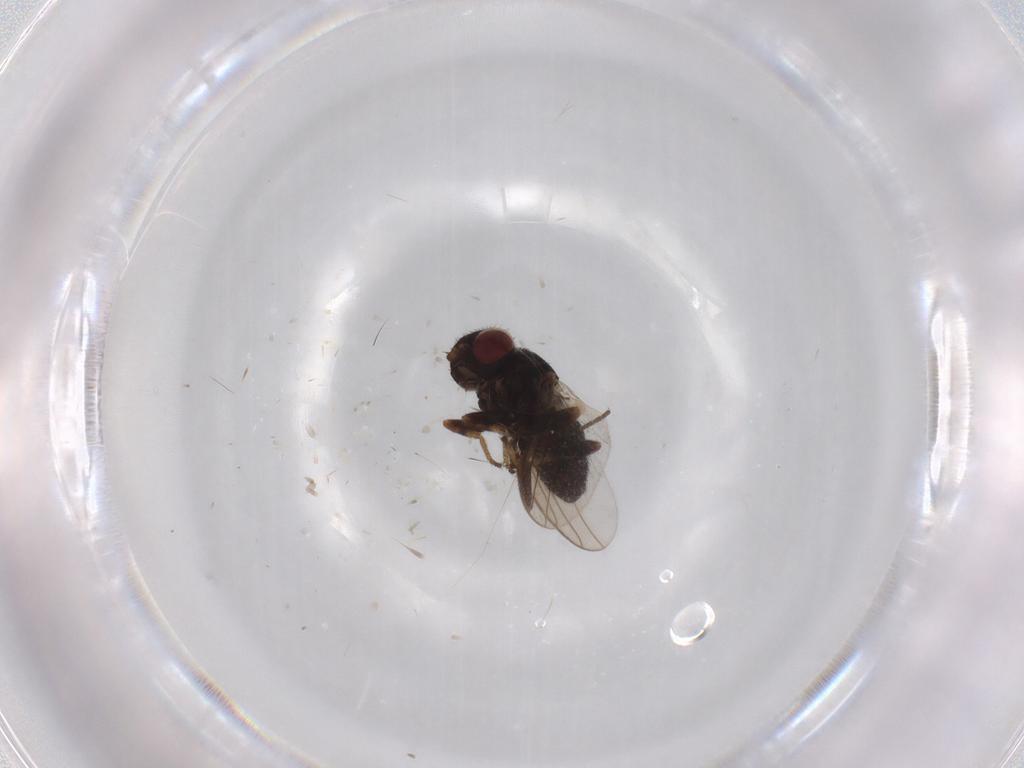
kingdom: Animalia
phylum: Arthropoda
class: Insecta
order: Diptera
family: Chloropidae
